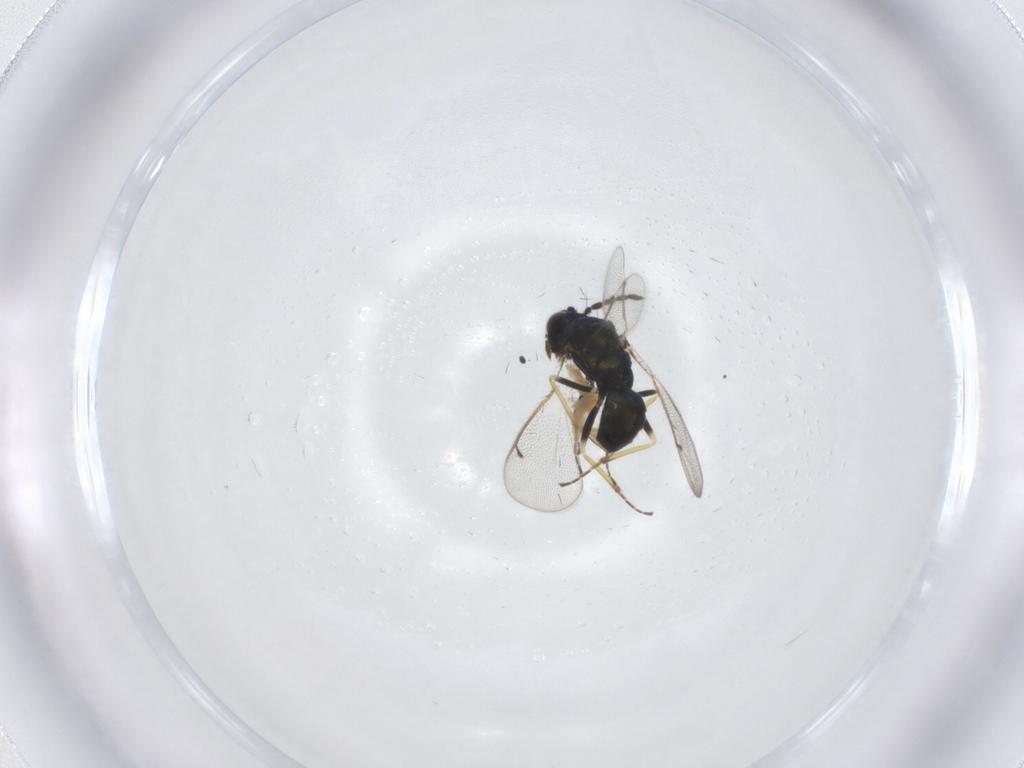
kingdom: Animalia
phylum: Arthropoda
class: Insecta
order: Hymenoptera
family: Eulophidae
